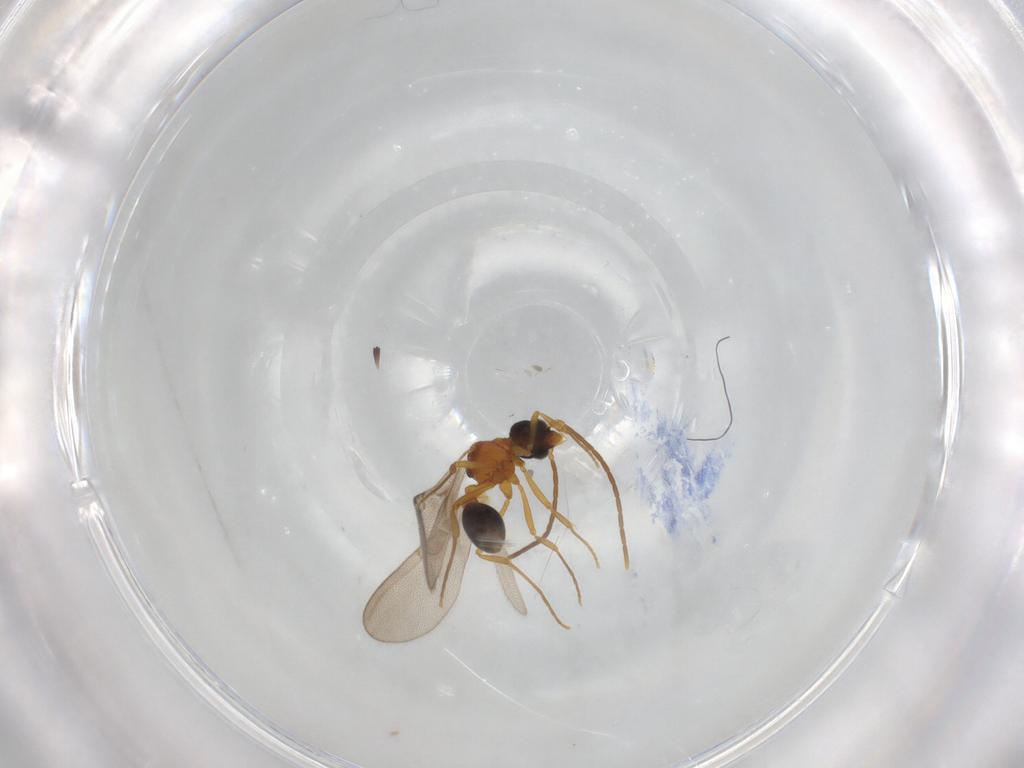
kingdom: Animalia
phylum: Arthropoda
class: Insecta
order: Hymenoptera
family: Formicidae
